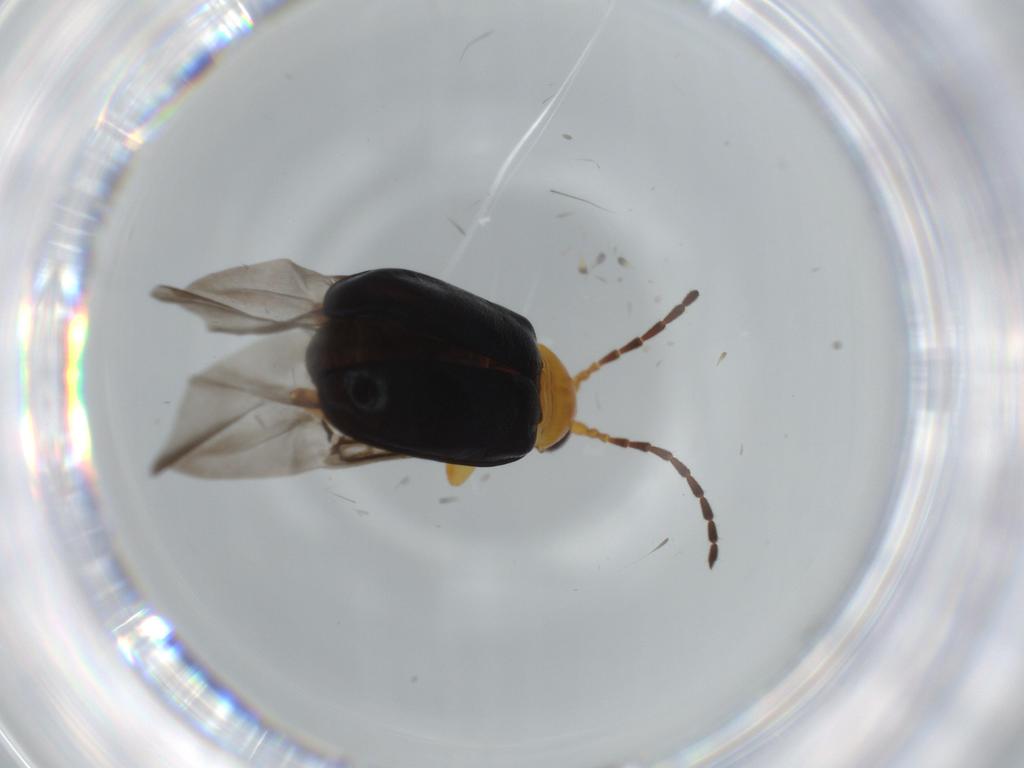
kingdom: Animalia
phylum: Arthropoda
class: Insecta
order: Coleoptera
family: Chrysomelidae
